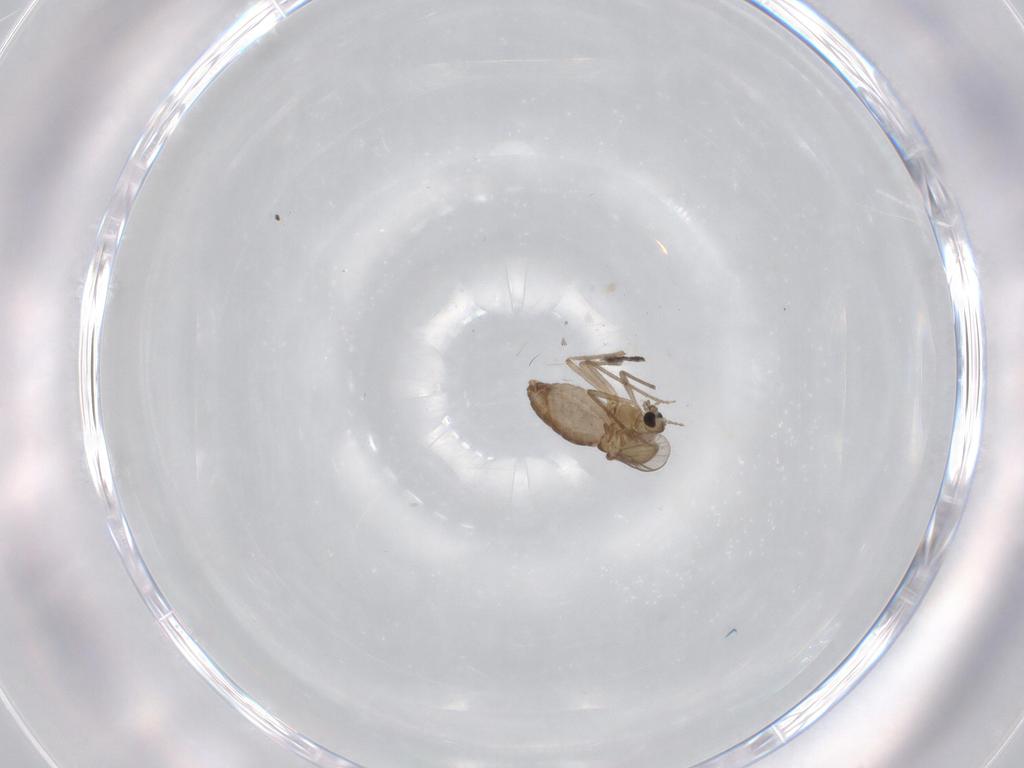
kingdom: Animalia
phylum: Arthropoda
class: Insecta
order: Diptera
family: Chironomidae
